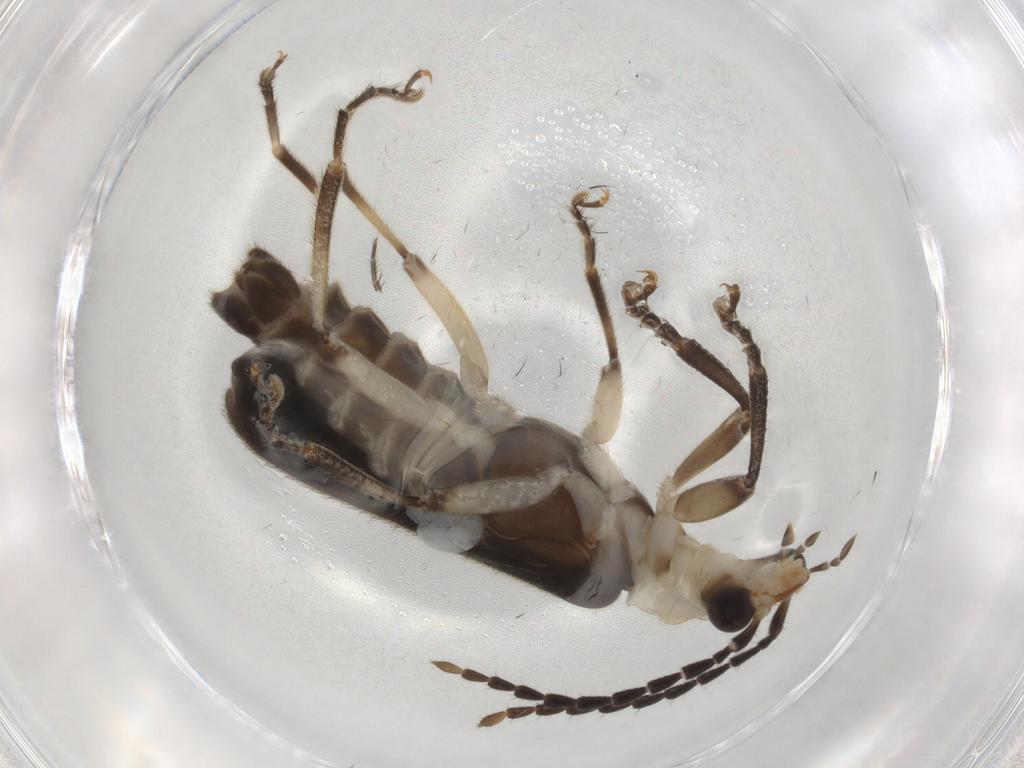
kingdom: Animalia
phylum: Arthropoda
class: Insecta
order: Coleoptera
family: Cantharidae
